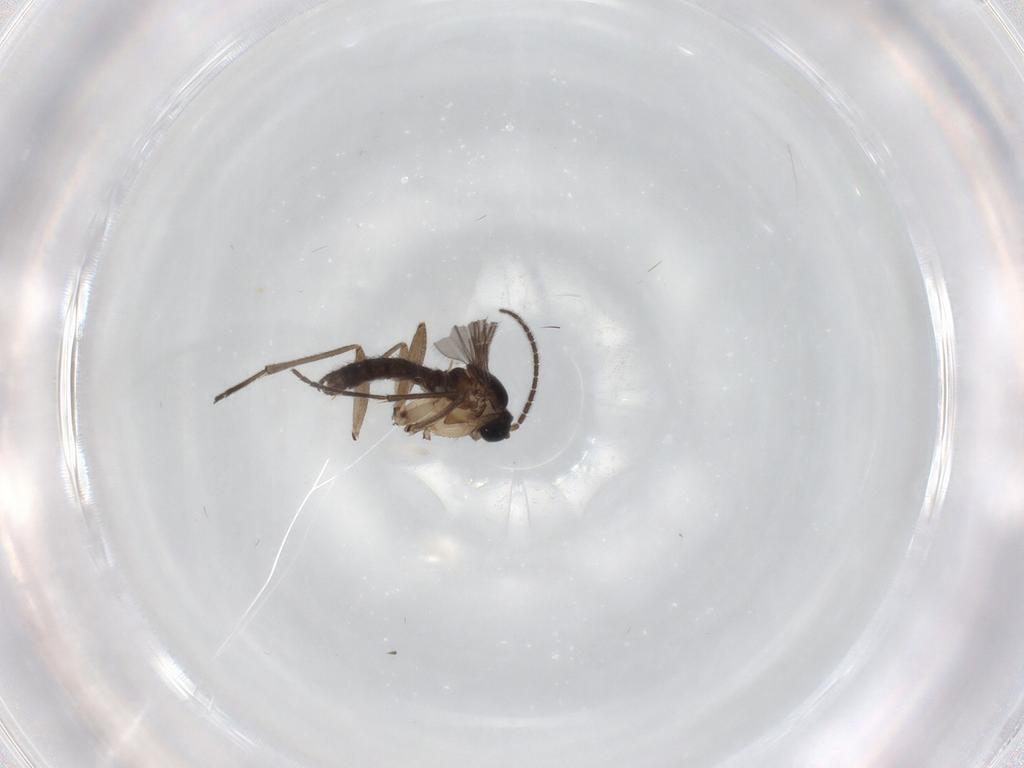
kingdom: Animalia
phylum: Arthropoda
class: Insecta
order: Diptera
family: Sciaridae
